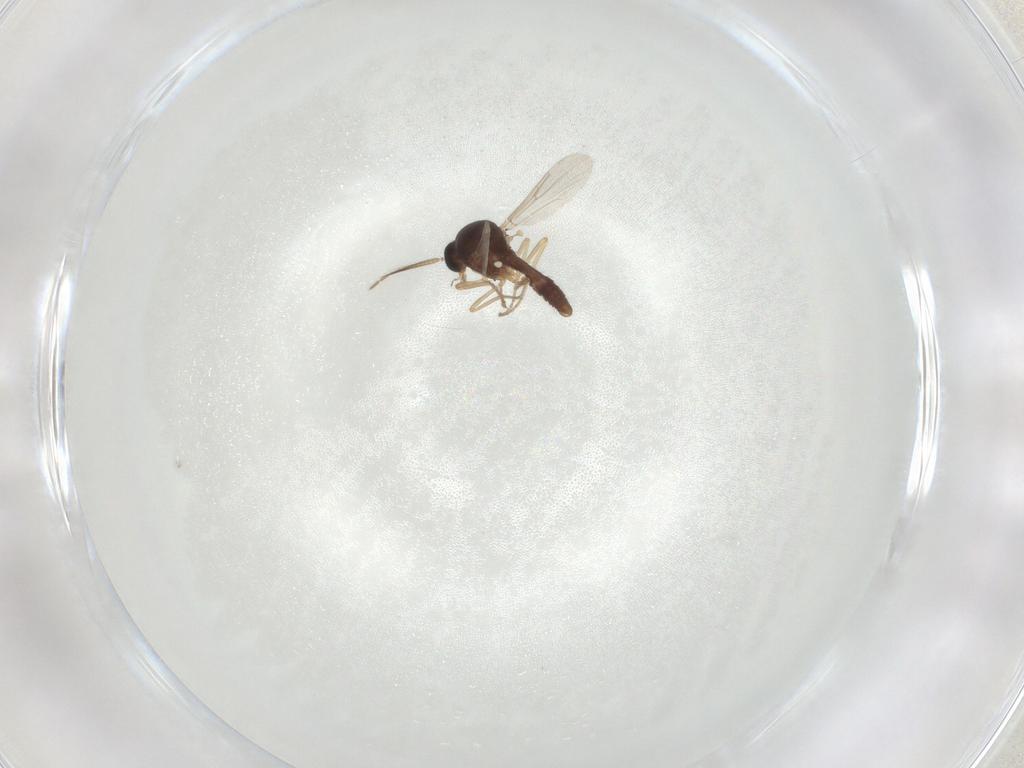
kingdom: Animalia
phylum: Arthropoda
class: Insecta
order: Diptera
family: Ceratopogonidae
